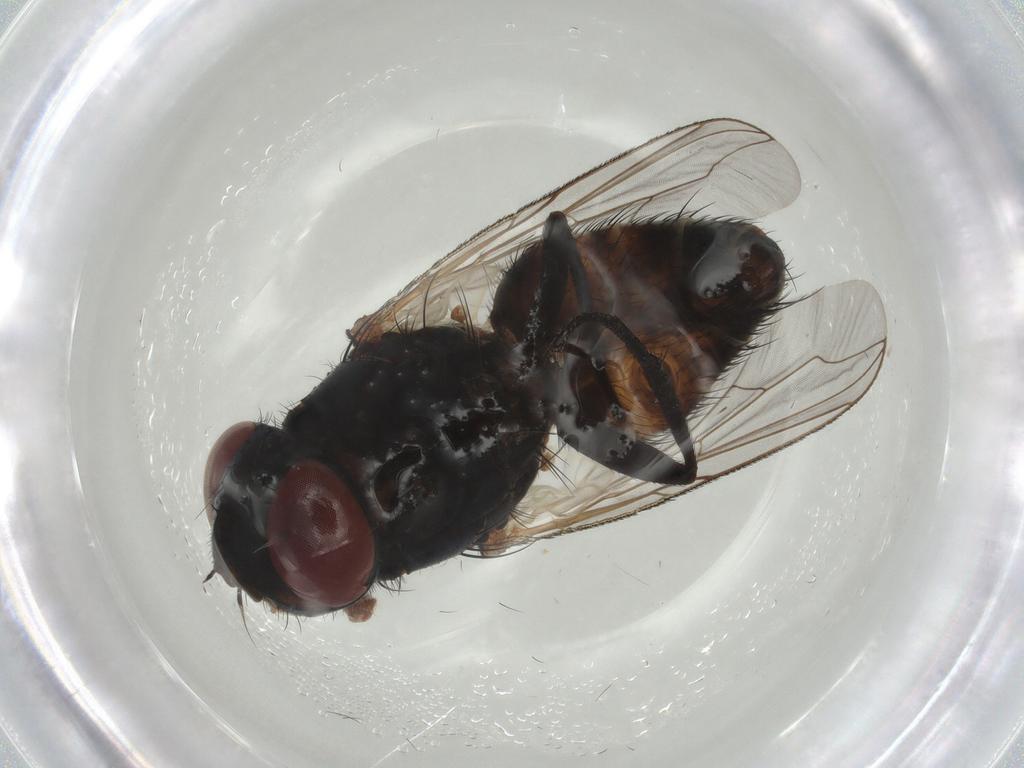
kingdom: Animalia
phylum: Arthropoda
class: Insecta
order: Diptera
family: Sarcophagidae
